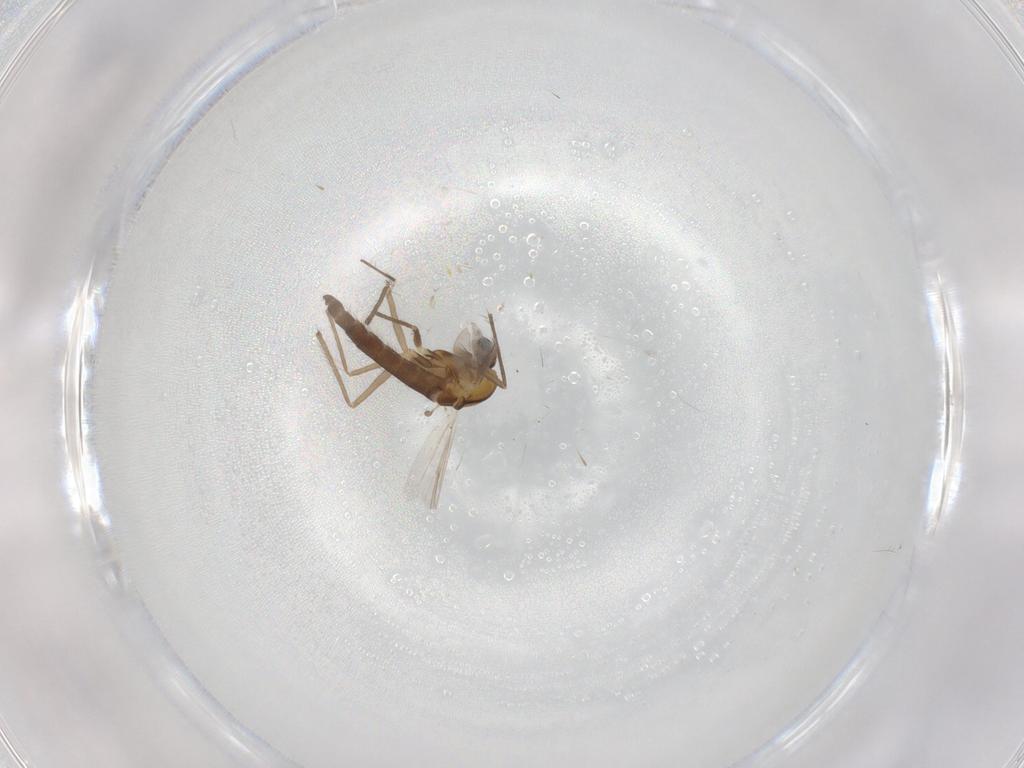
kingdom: Animalia
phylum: Arthropoda
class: Insecta
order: Diptera
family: Chironomidae
